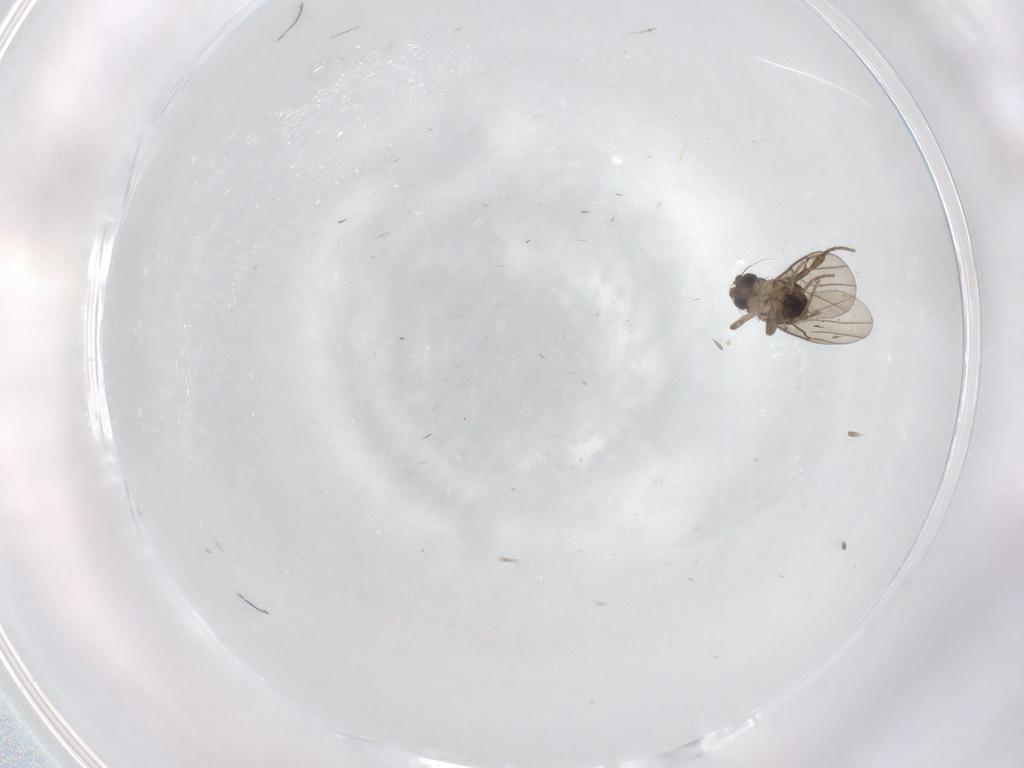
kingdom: Animalia
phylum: Arthropoda
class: Insecta
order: Diptera
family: Phoridae
